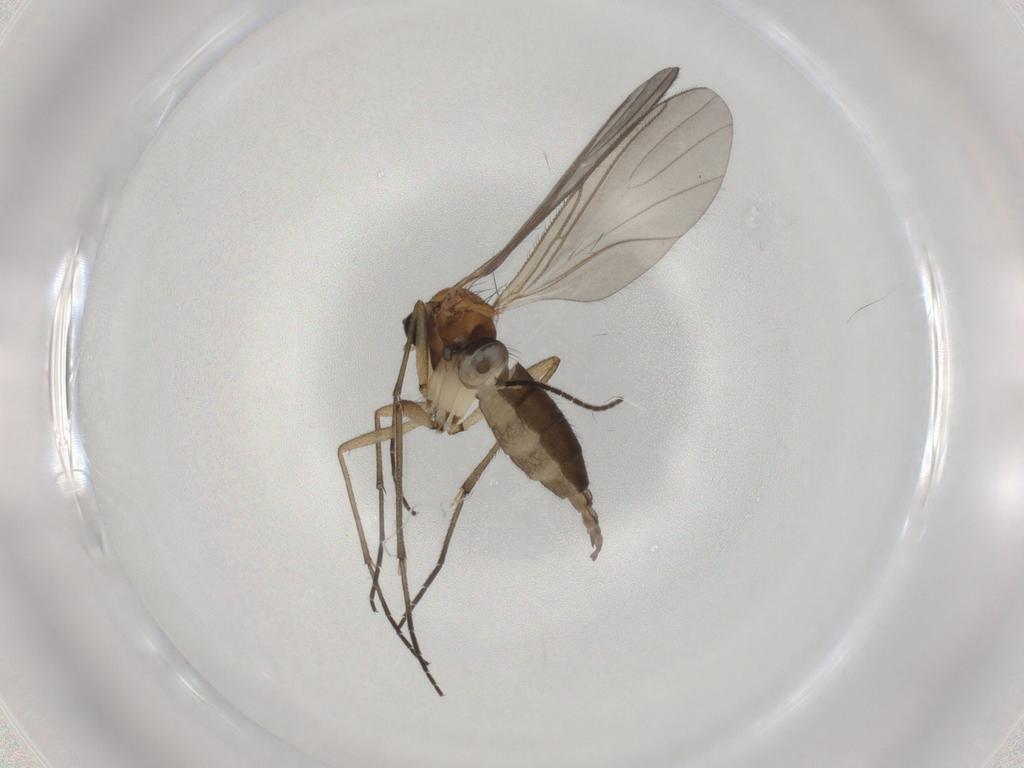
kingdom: Animalia
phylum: Arthropoda
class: Insecta
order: Diptera
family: Sciaridae
